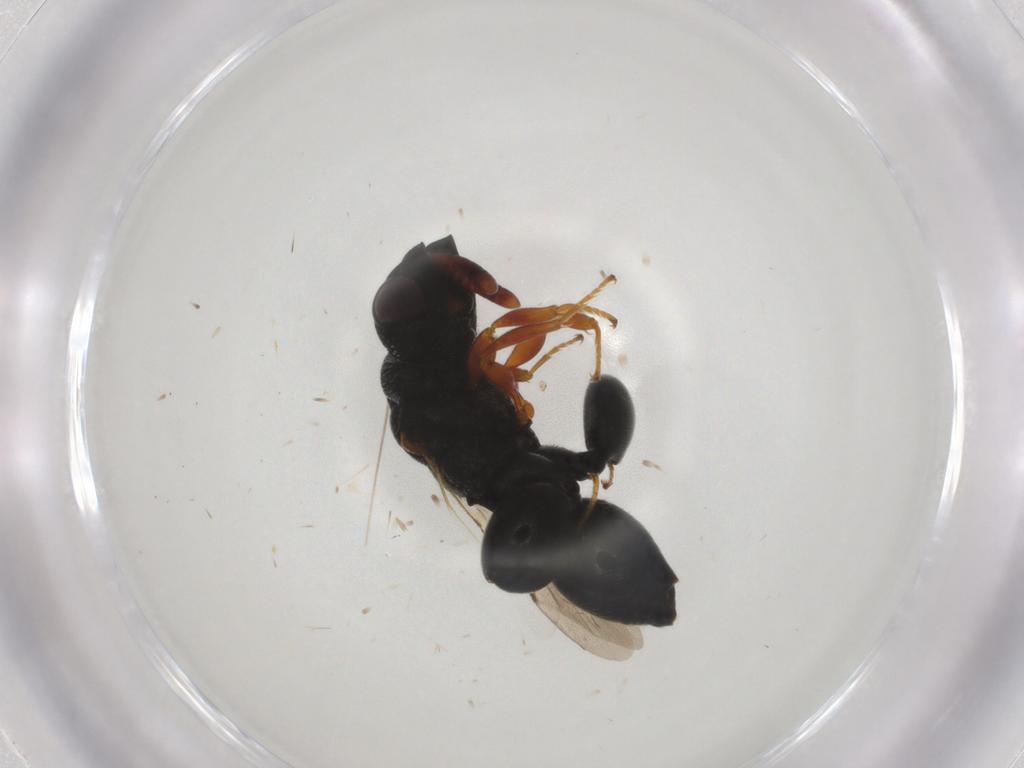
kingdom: Animalia
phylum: Arthropoda
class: Insecta
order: Hymenoptera
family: Chalcididae
